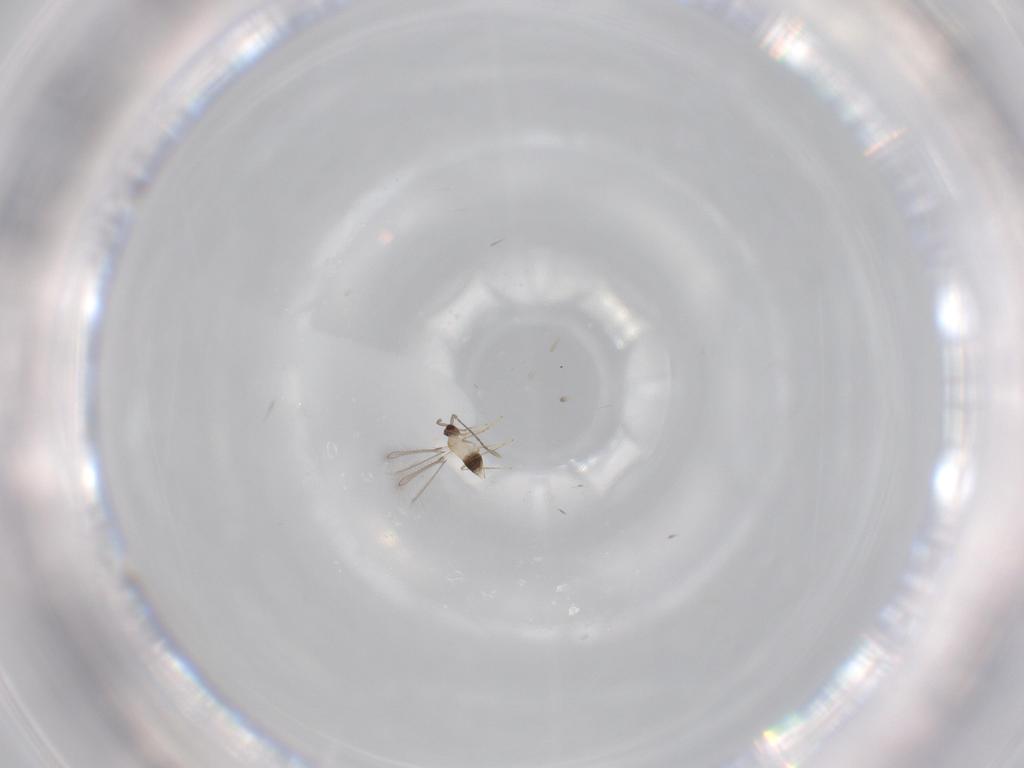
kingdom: Animalia
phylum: Arthropoda
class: Insecta
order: Hymenoptera
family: Mymaridae
